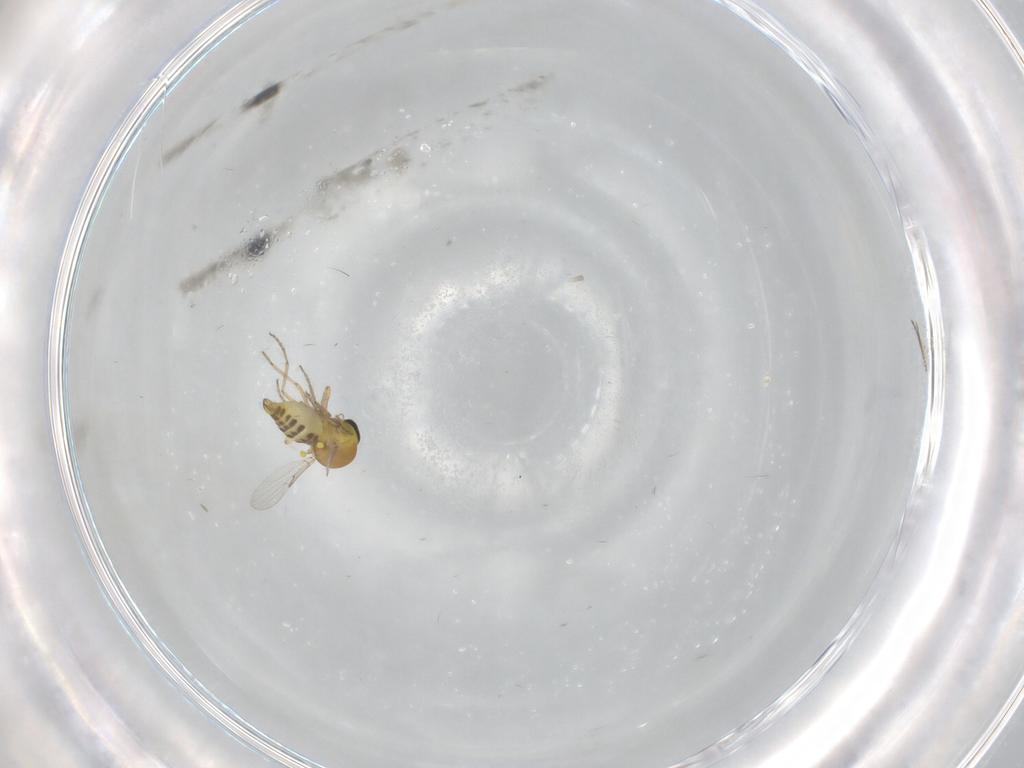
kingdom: Animalia
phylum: Arthropoda
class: Insecta
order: Diptera
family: Ceratopogonidae
